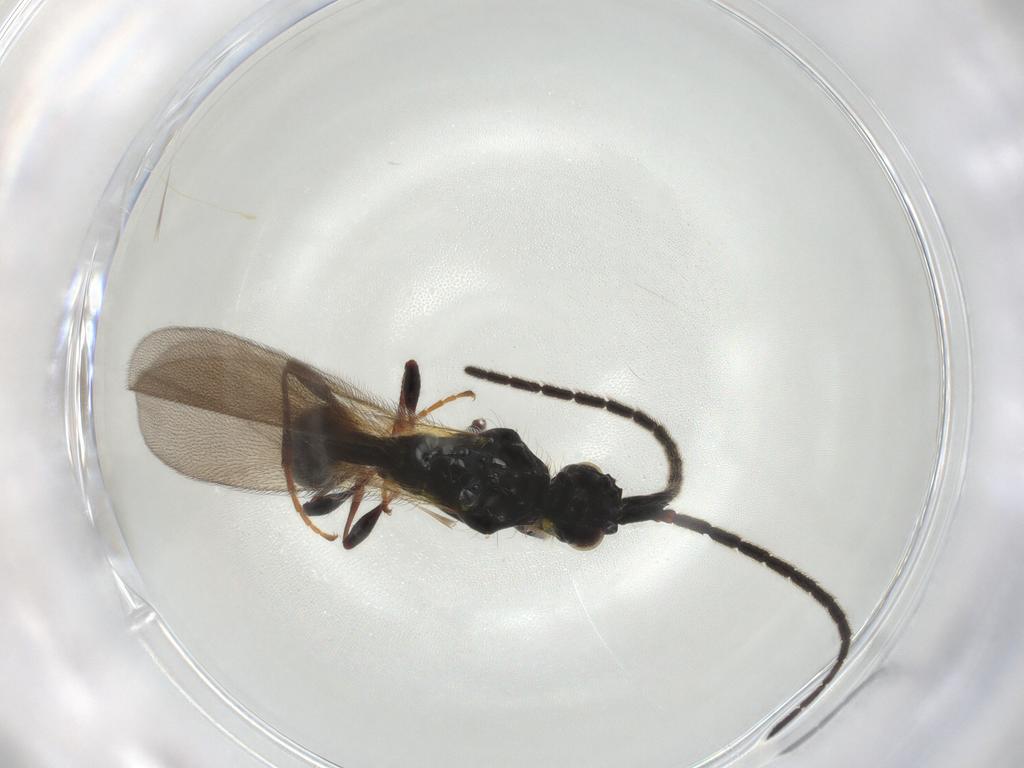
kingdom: Animalia
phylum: Arthropoda
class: Insecta
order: Hymenoptera
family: Diapriidae
